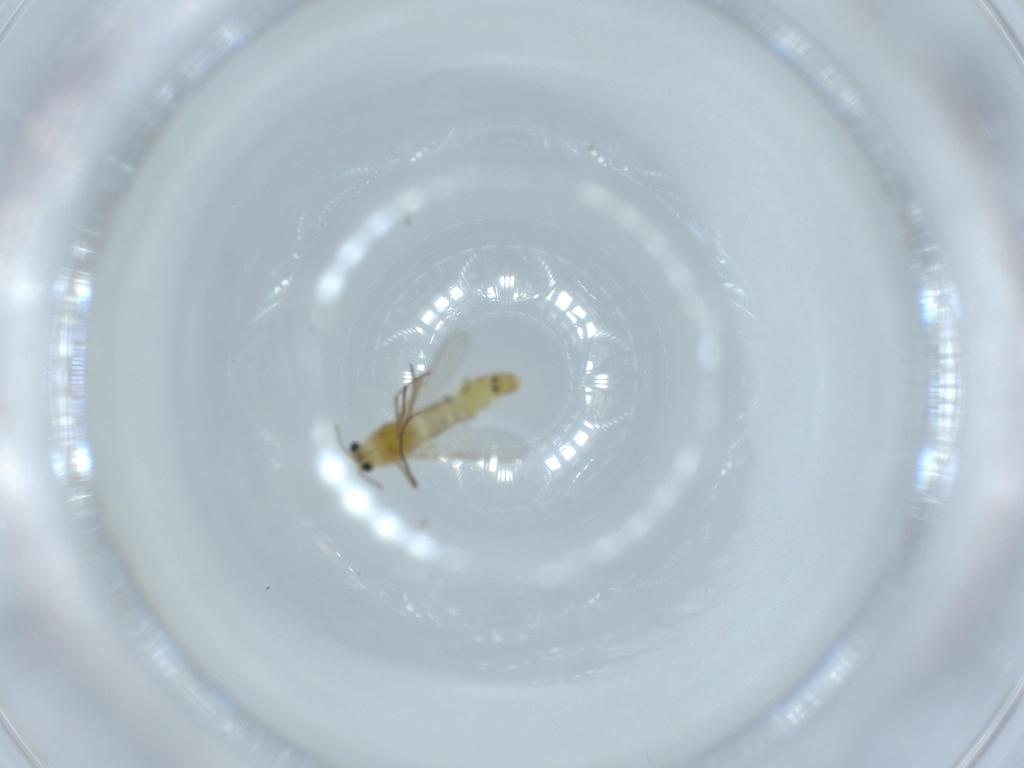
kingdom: Animalia
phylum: Arthropoda
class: Insecta
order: Diptera
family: Chironomidae
